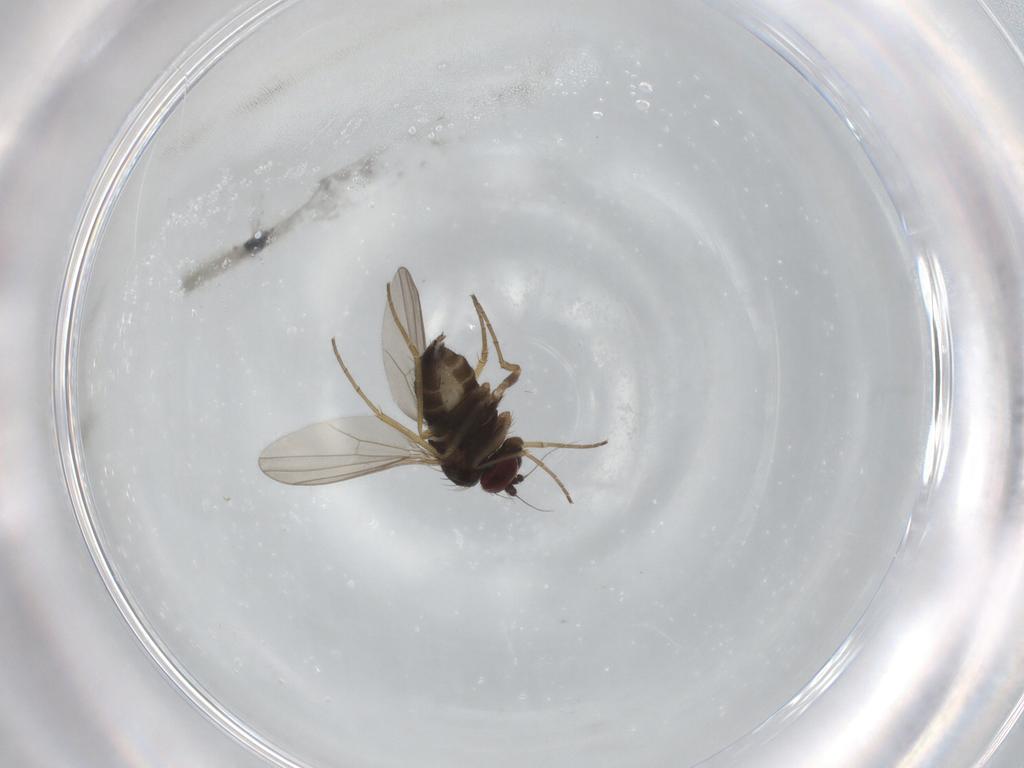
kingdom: Animalia
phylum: Arthropoda
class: Insecta
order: Diptera
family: Dolichopodidae
